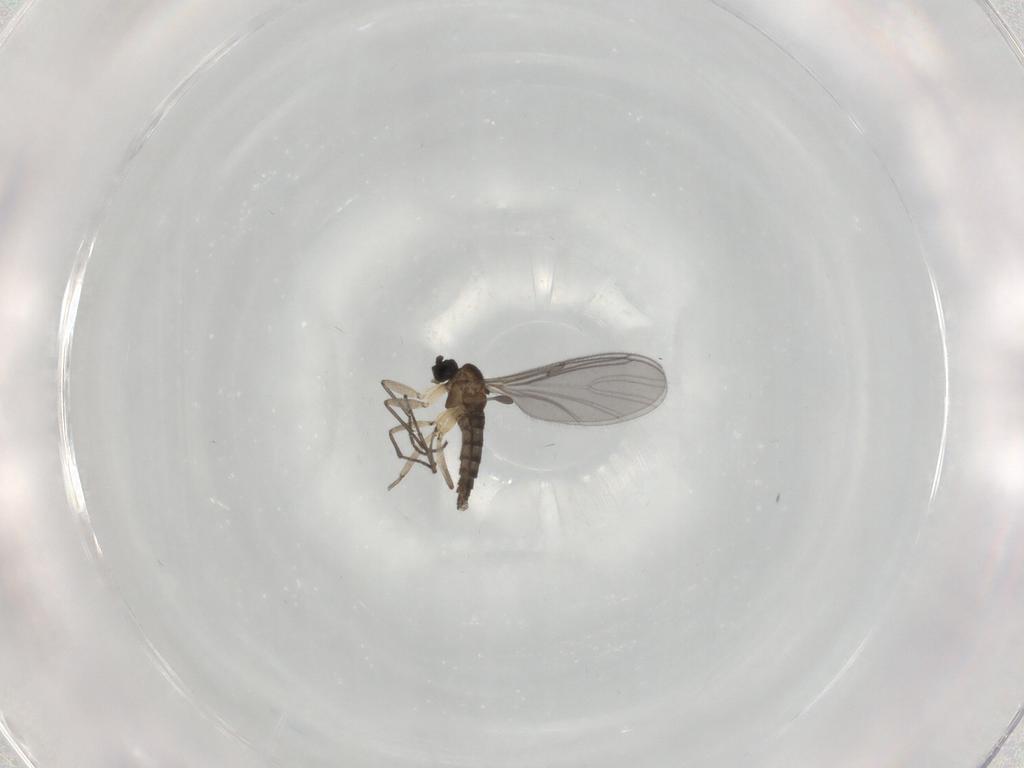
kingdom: Animalia
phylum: Arthropoda
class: Insecta
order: Diptera
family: Sciaridae
